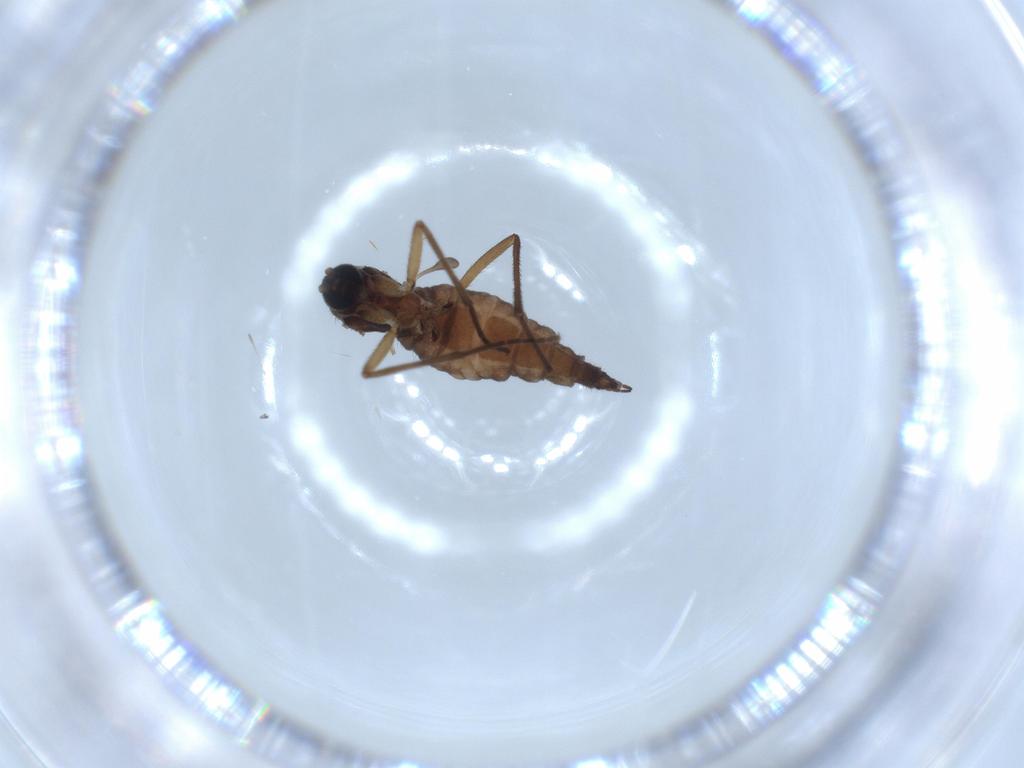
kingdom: Animalia
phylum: Arthropoda
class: Insecta
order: Diptera
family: Sciaridae
